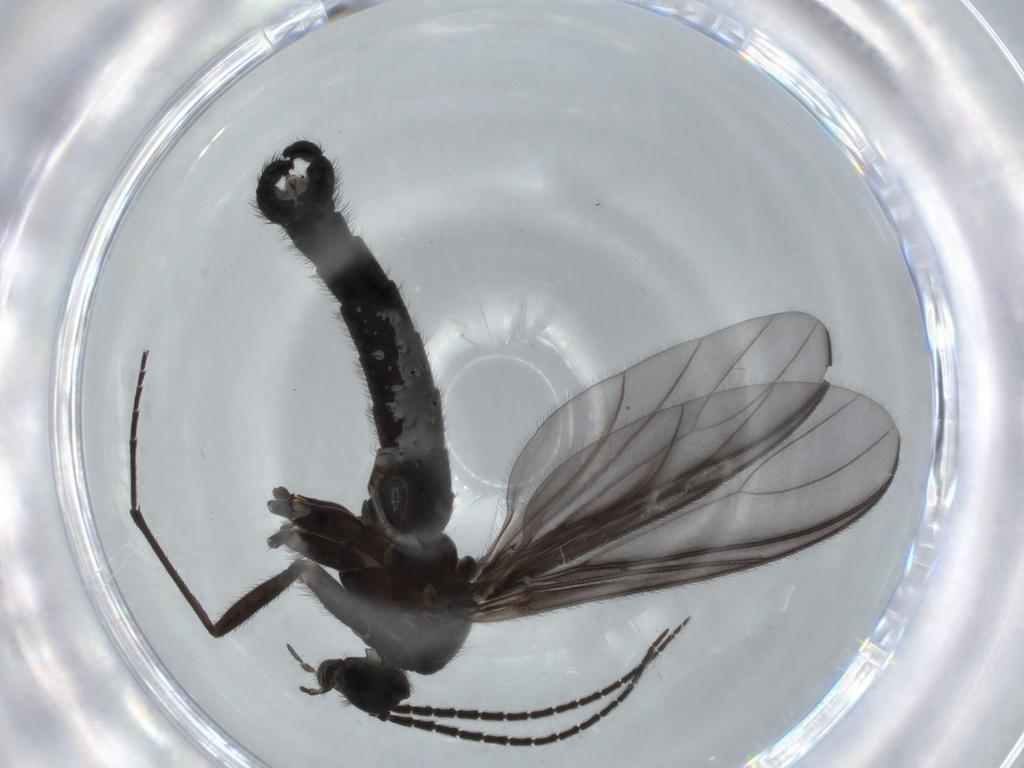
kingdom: Animalia
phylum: Arthropoda
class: Insecta
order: Diptera
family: Sciaridae
